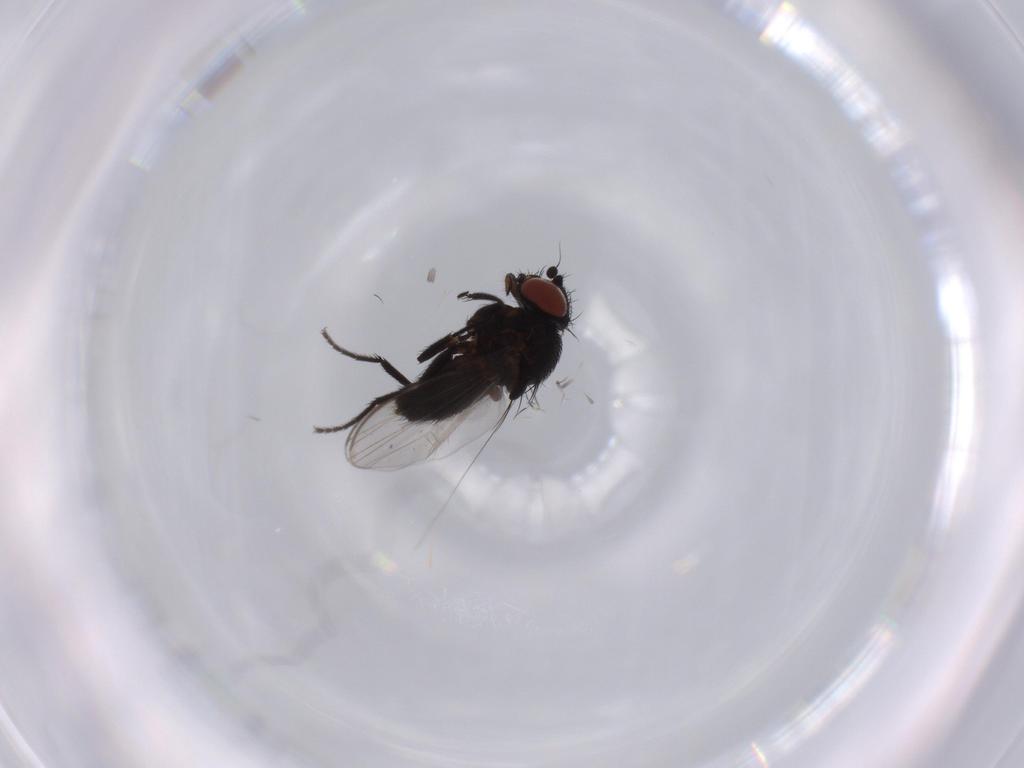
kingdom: Animalia
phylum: Arthropoda
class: Insecta
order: Diptera
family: Milichiidae
